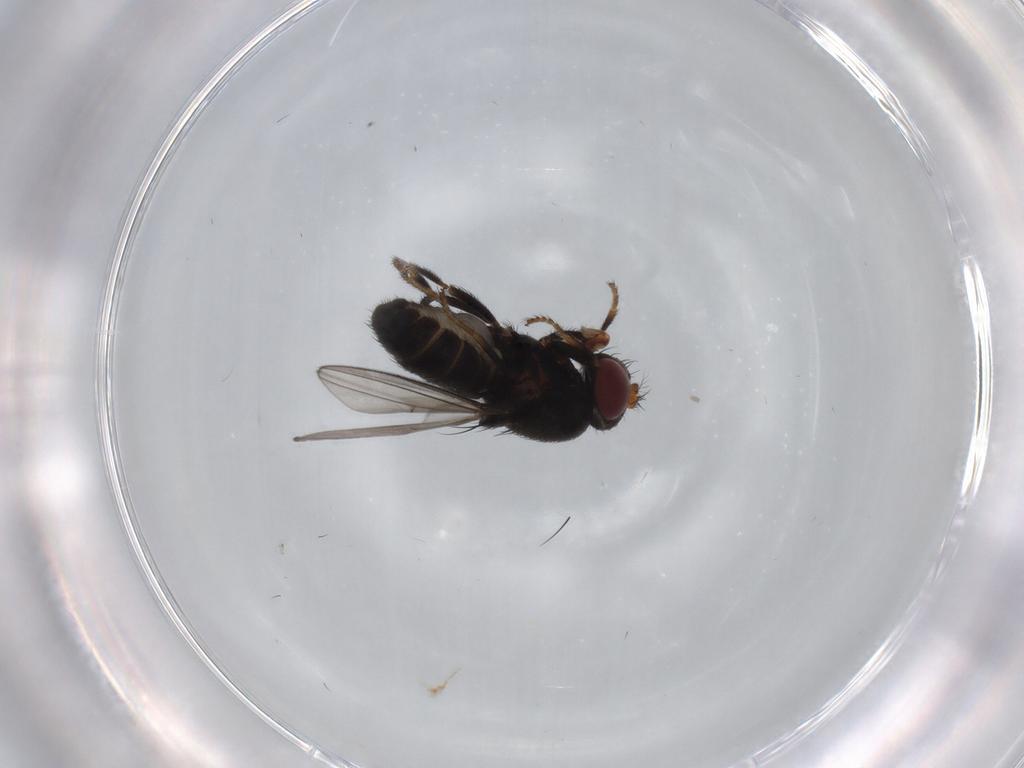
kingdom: Animalia
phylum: Arthropoda
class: Insecta
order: Diptera
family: Ephydridae
